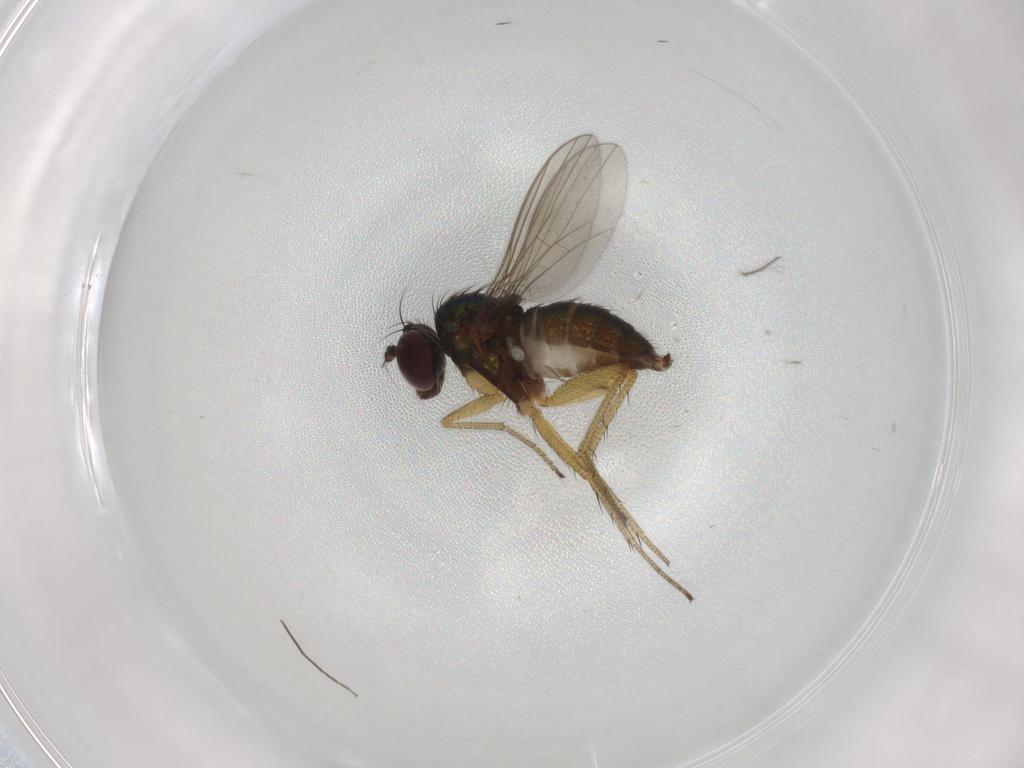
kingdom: Animalia
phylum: Arthropoda
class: Insecta
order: Diptera
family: Dolichopodidae
